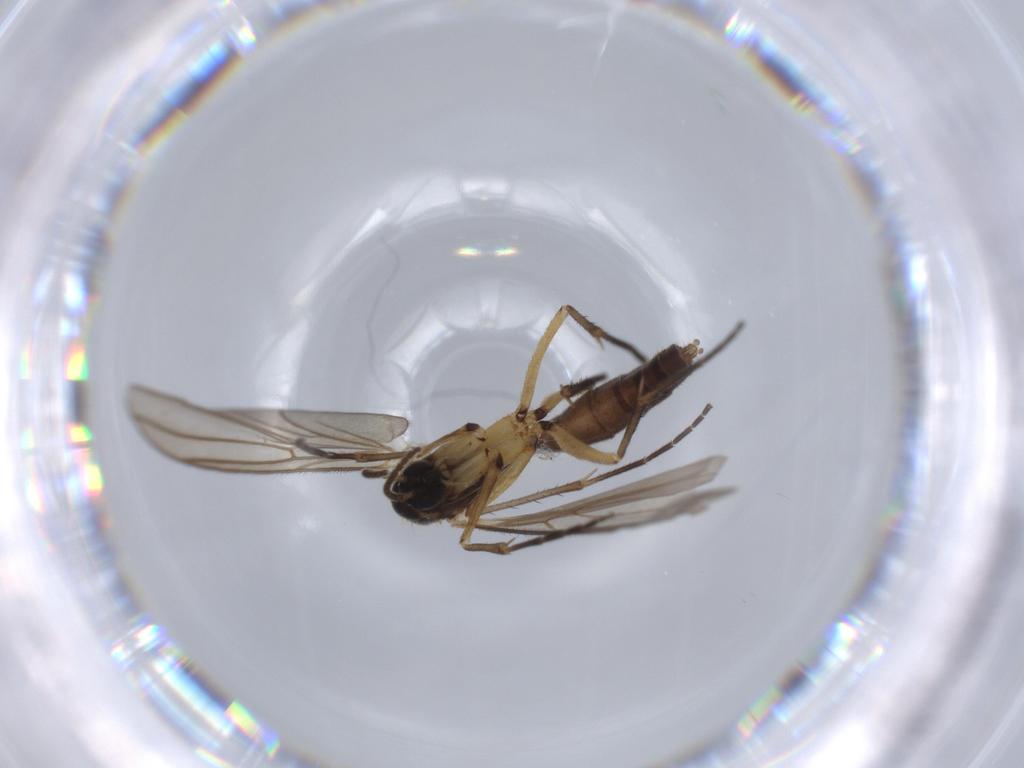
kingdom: Animalia
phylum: Arthropoda
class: Insecta
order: Diptera
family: Mycetophilidae
